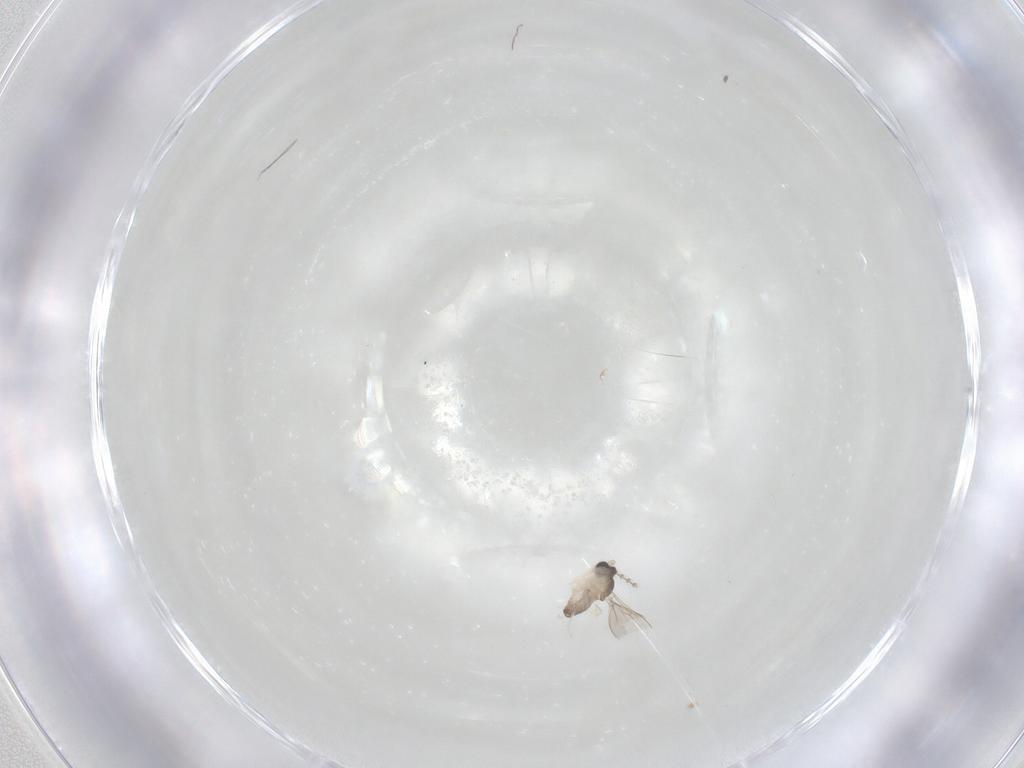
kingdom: Animalia
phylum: Arthropoda
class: Insecta
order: Diptera
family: Cecidomyiidae
